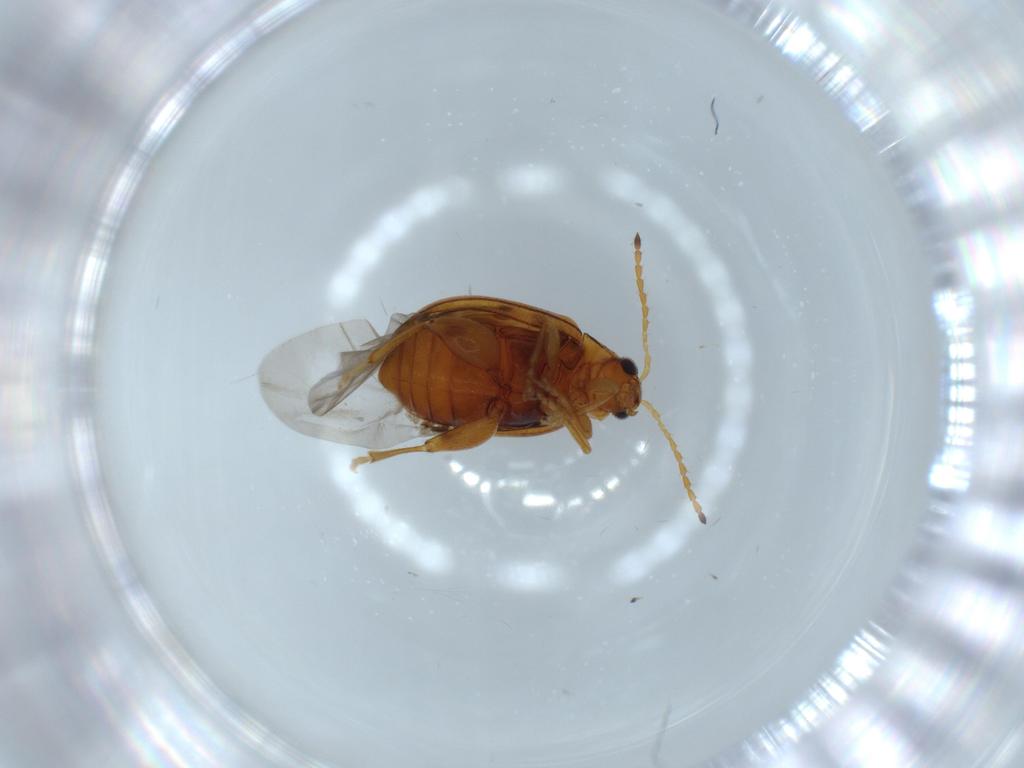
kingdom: Animalia
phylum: Arthropoda
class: Insecta
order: Coleoptera
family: Chrysomelidae
